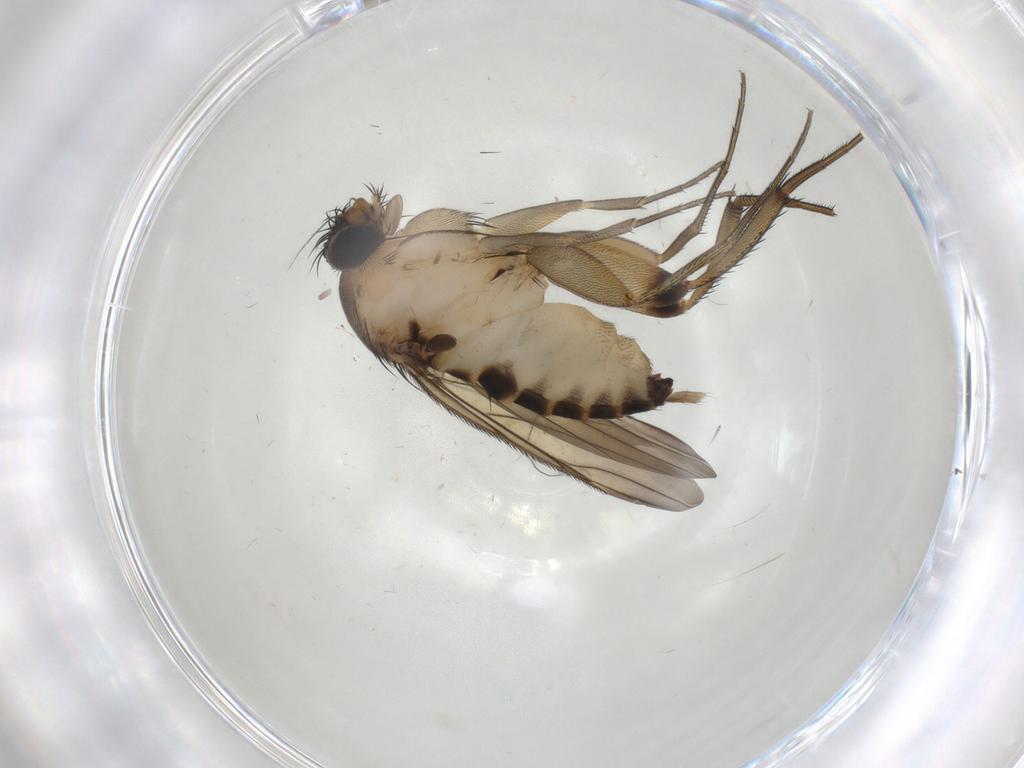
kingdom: Animalia
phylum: Arthropoda
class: Insecta
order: Diptera
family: Phoridae
